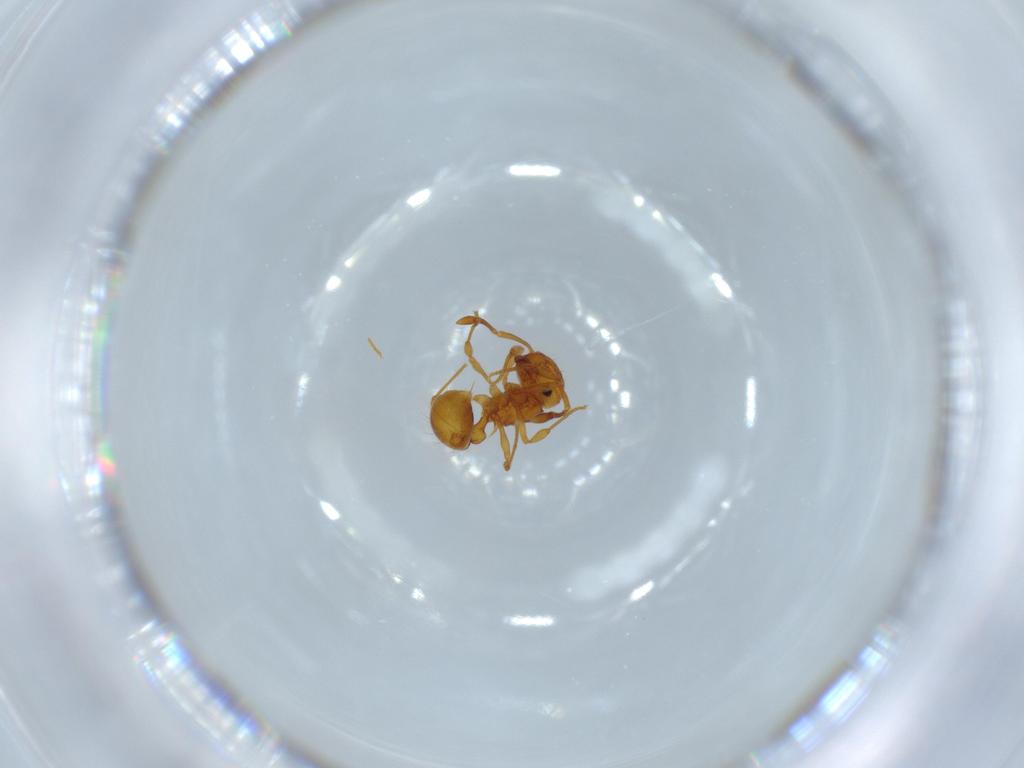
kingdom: Animalia
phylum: Arthropoda
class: Insecta
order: Hymenoptera
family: Formicidae
